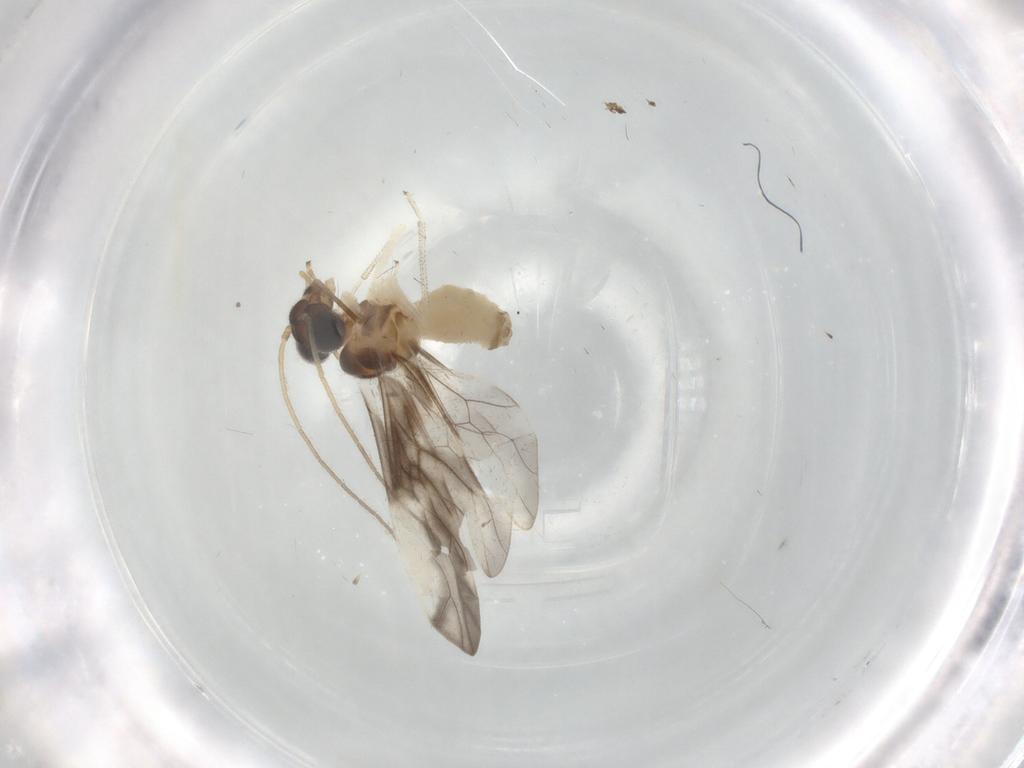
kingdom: Animalia
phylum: Arthropoda
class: Insecta
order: Psocodea
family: Caeciliusidae
